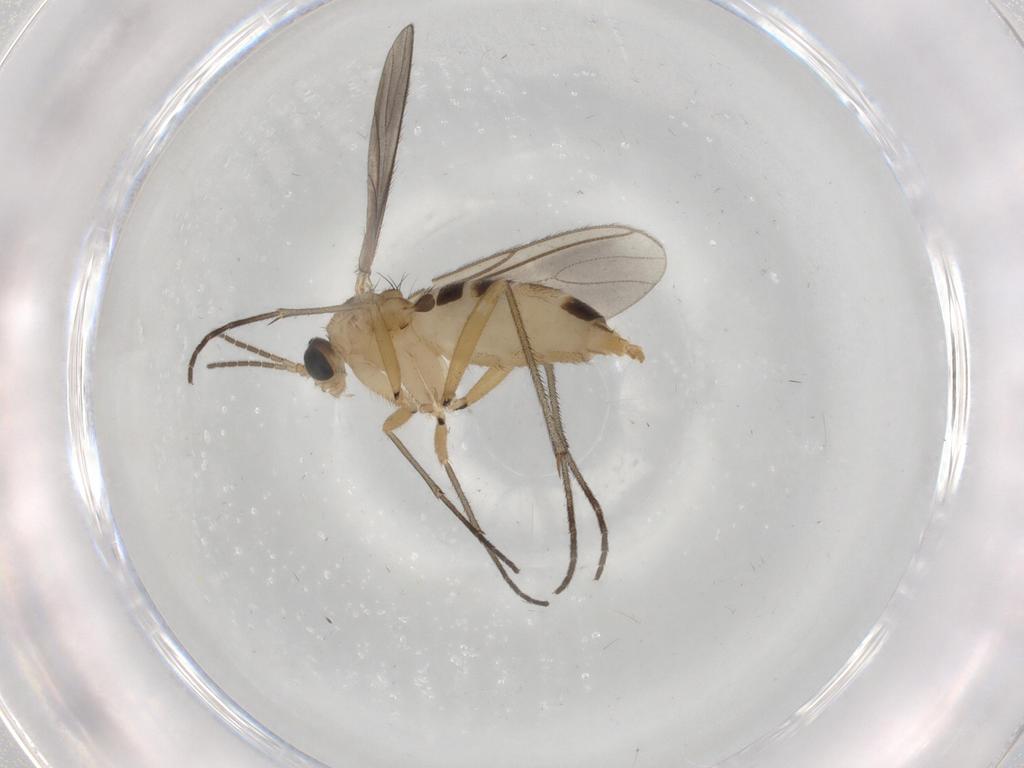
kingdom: Animalia
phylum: Arthropoda
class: Insecta
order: Diptera
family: Sciaridae
